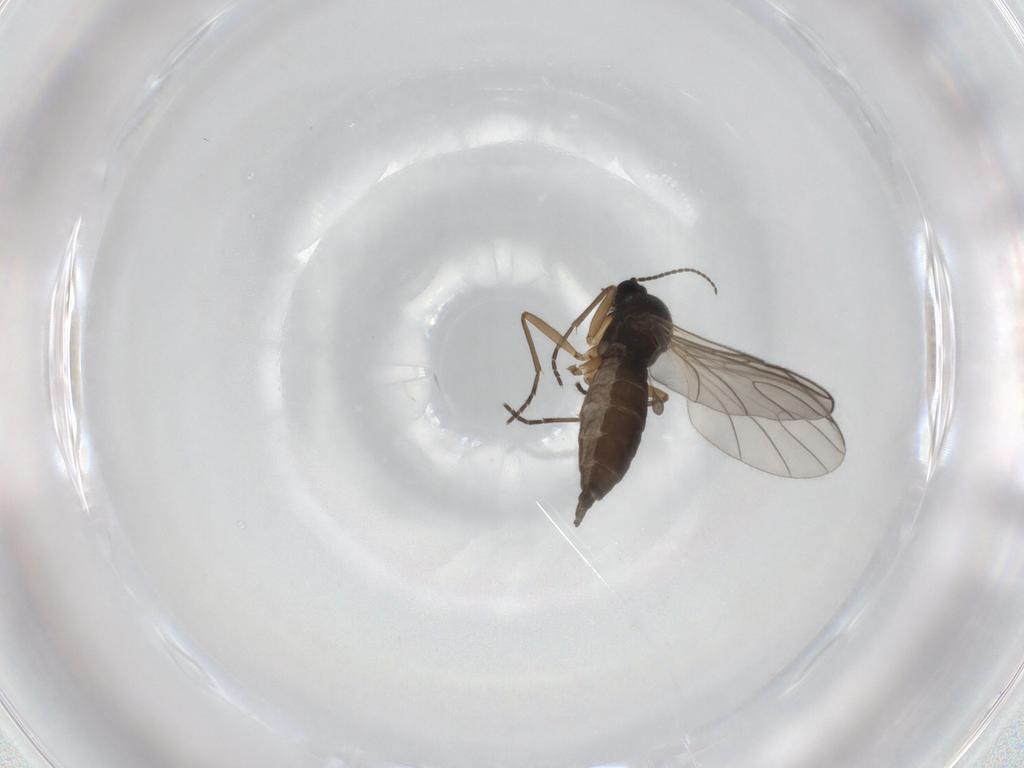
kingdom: Animalia
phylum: Arthropoda
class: Insecta
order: Diptera
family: Sciaridae
